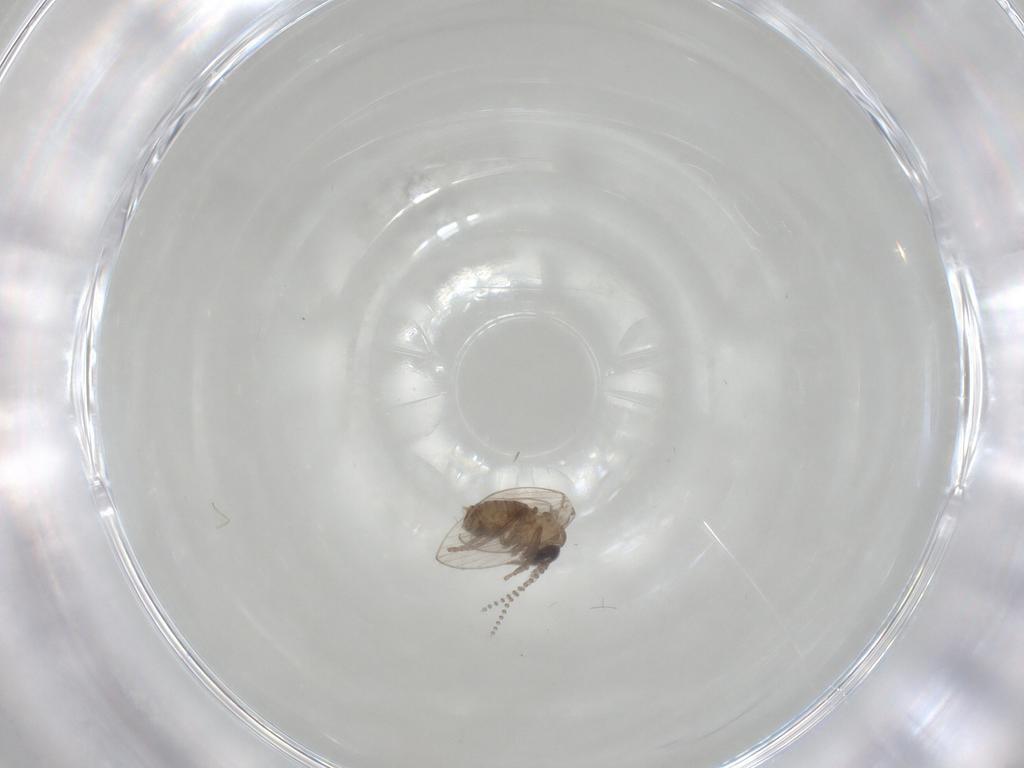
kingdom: Animalia
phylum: Arthropoda
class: Insecta
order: Diptera
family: Psychodidae
